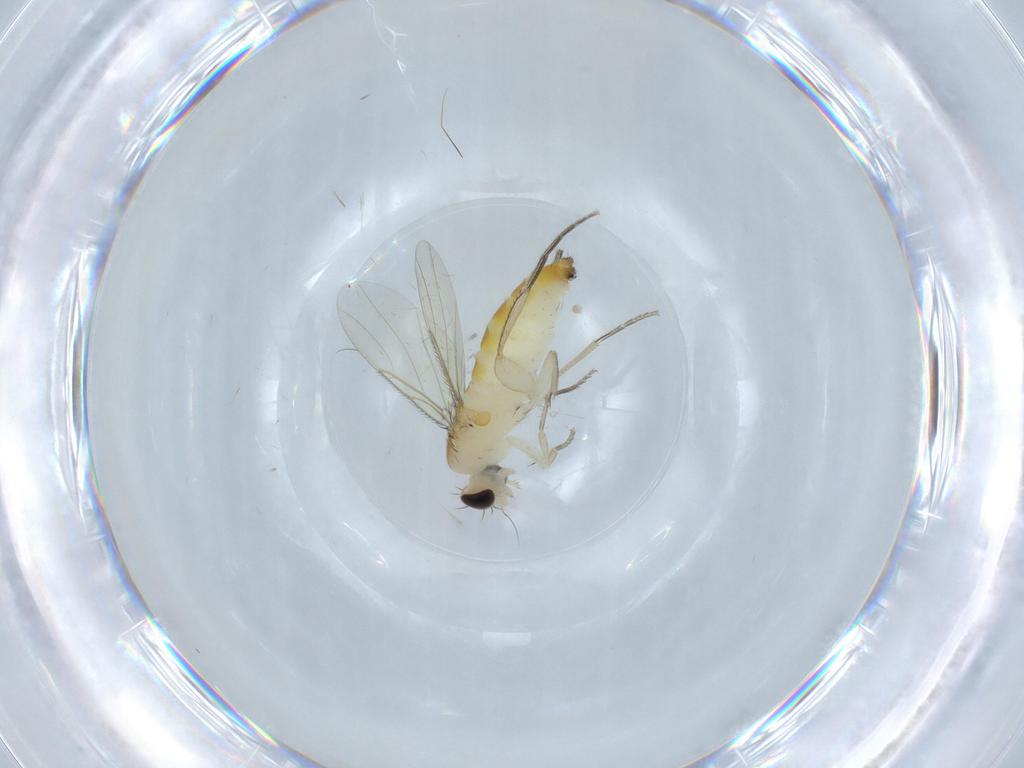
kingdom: Animalia
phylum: Arthropoda
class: Insecta
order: Diptera
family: Phoridae
